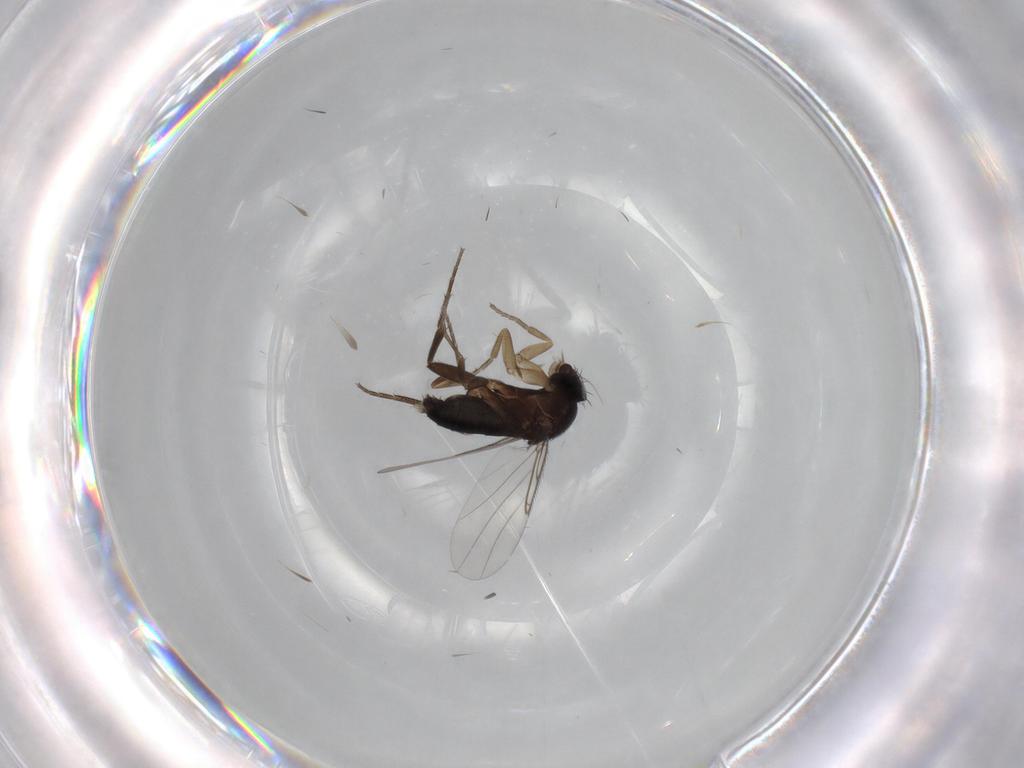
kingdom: Animalia
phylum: Arthropoda
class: Insecta
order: Diptera
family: Phoridae
